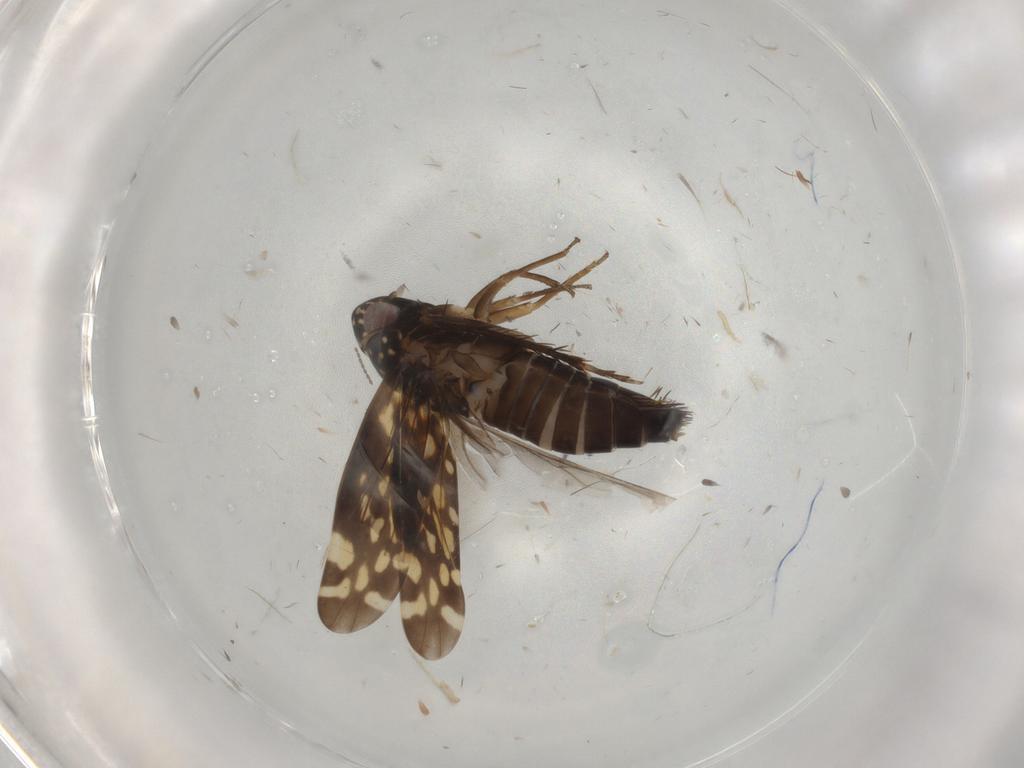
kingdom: Animalia
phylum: Arthropoda
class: Insecta
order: Hemiptera
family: Cicadellidae
